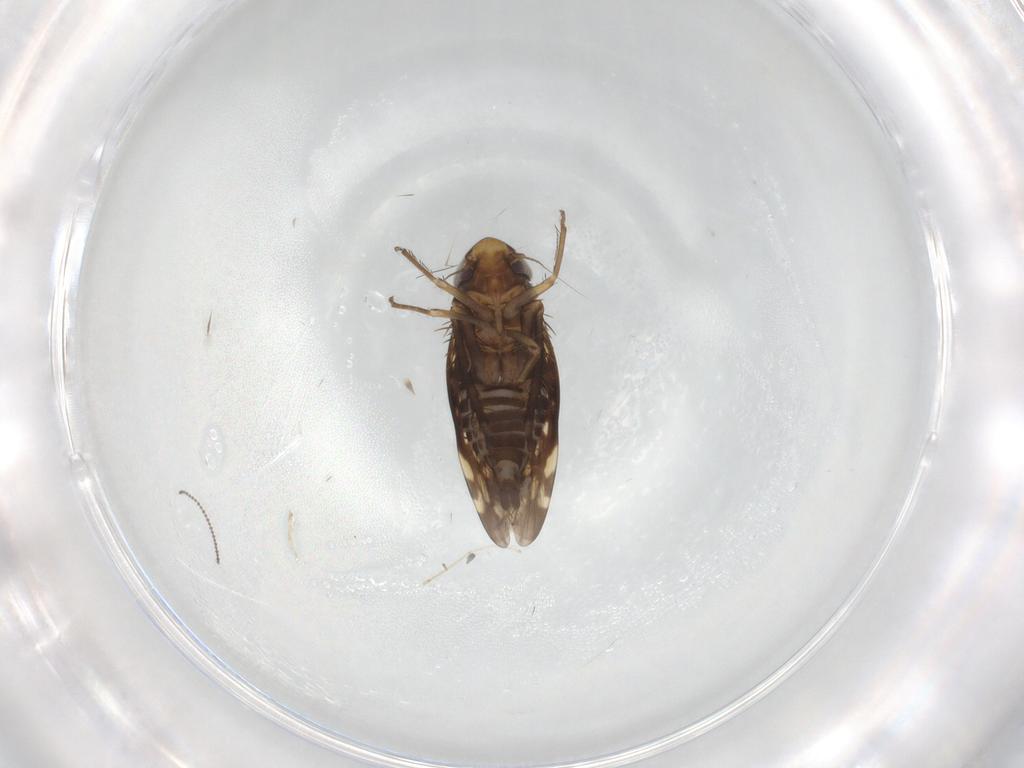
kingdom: Animalia
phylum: Arthropoda
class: Insecta
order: Hemiptera
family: Cicadellidae
